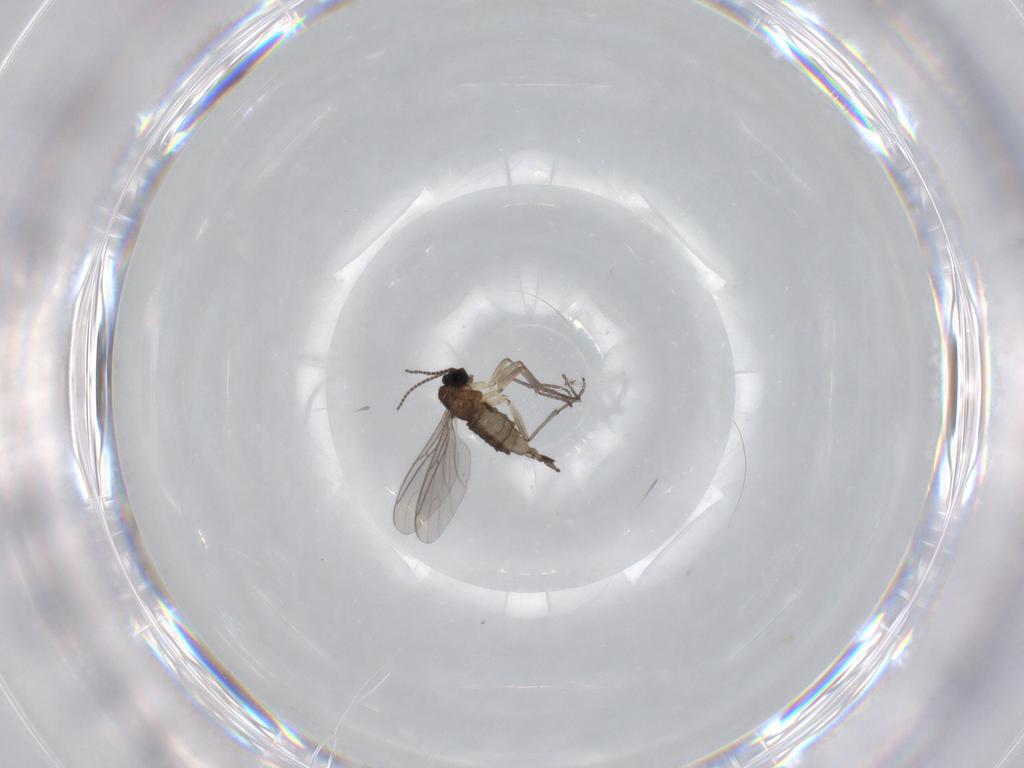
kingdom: Animalia
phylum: Arthropoda
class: Insecta
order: Diptera
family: Sciaridae
